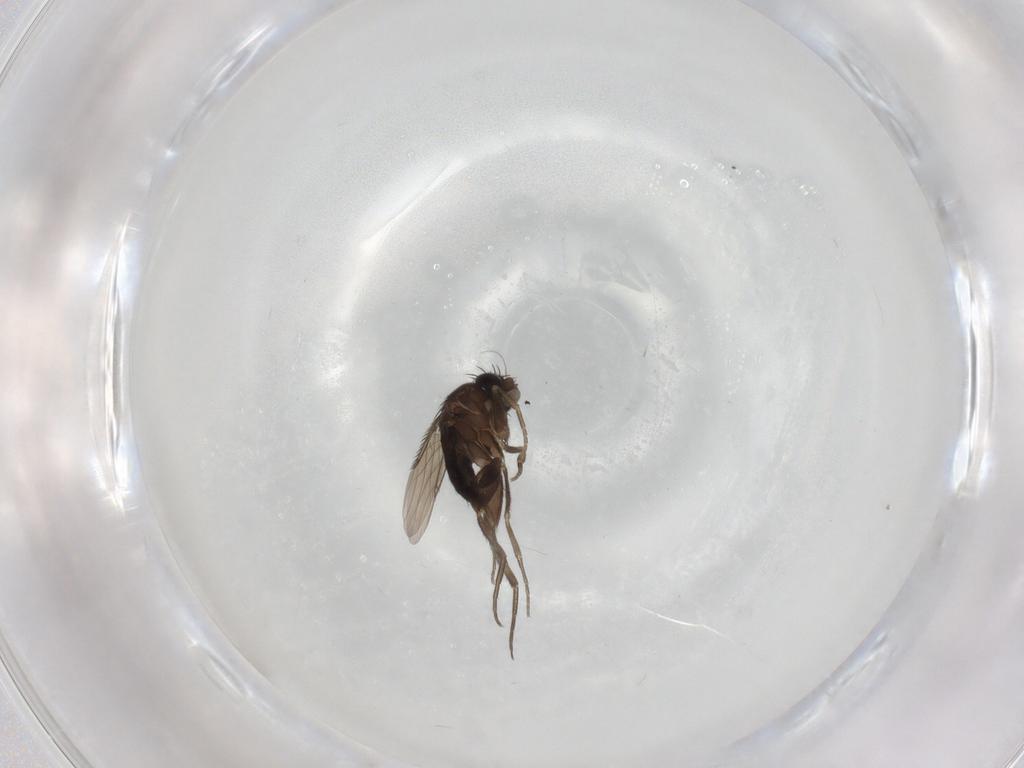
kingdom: Animalia
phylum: Arthropoda
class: Insecta
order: Diptera
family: Phoridae
